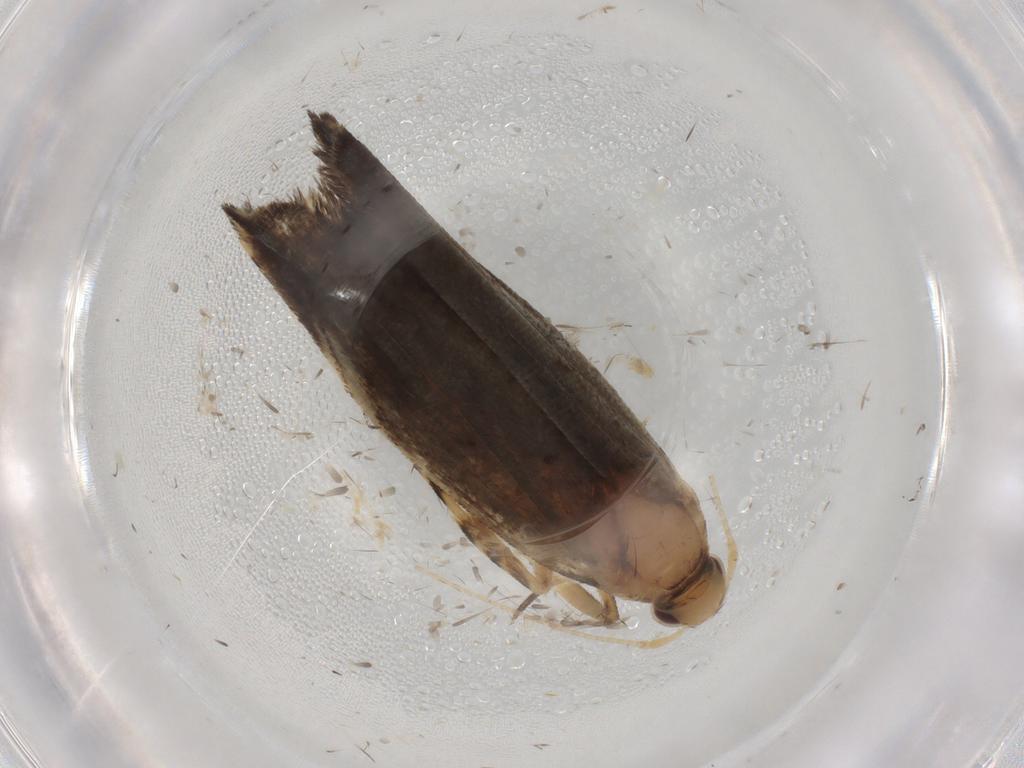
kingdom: Animalia
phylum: Arthropoda
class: Insecta
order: Lepidoptera
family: Gelechiidae
